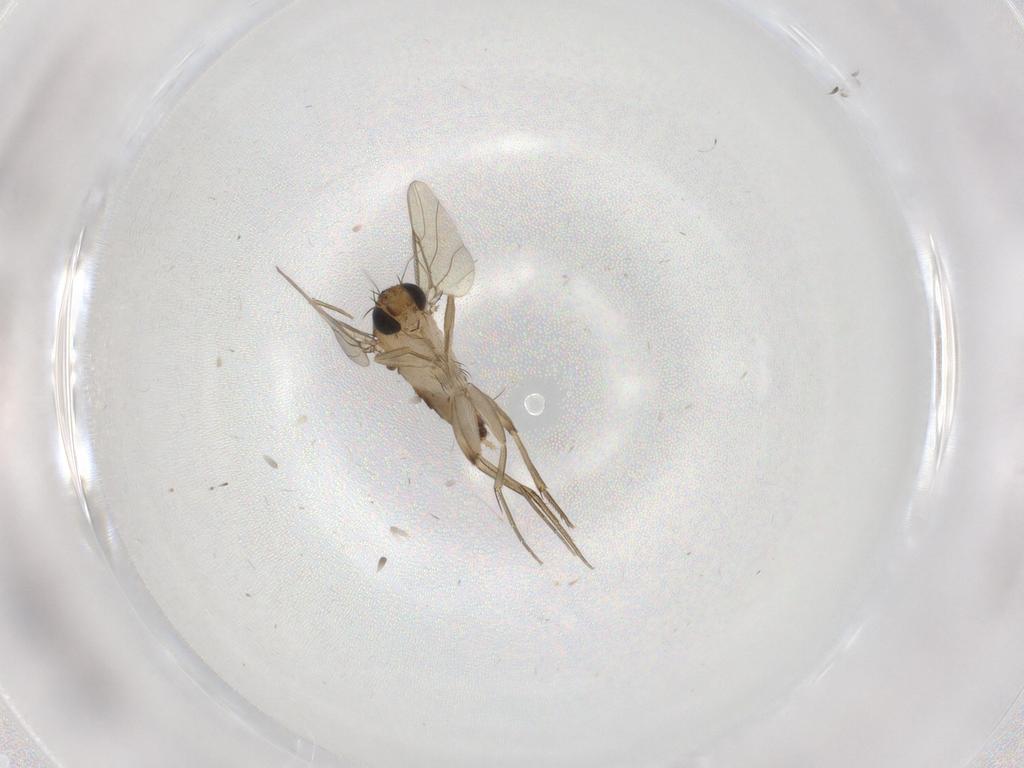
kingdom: Animalia
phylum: Arthropoda
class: Insecta
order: Diptera
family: Phoridae
